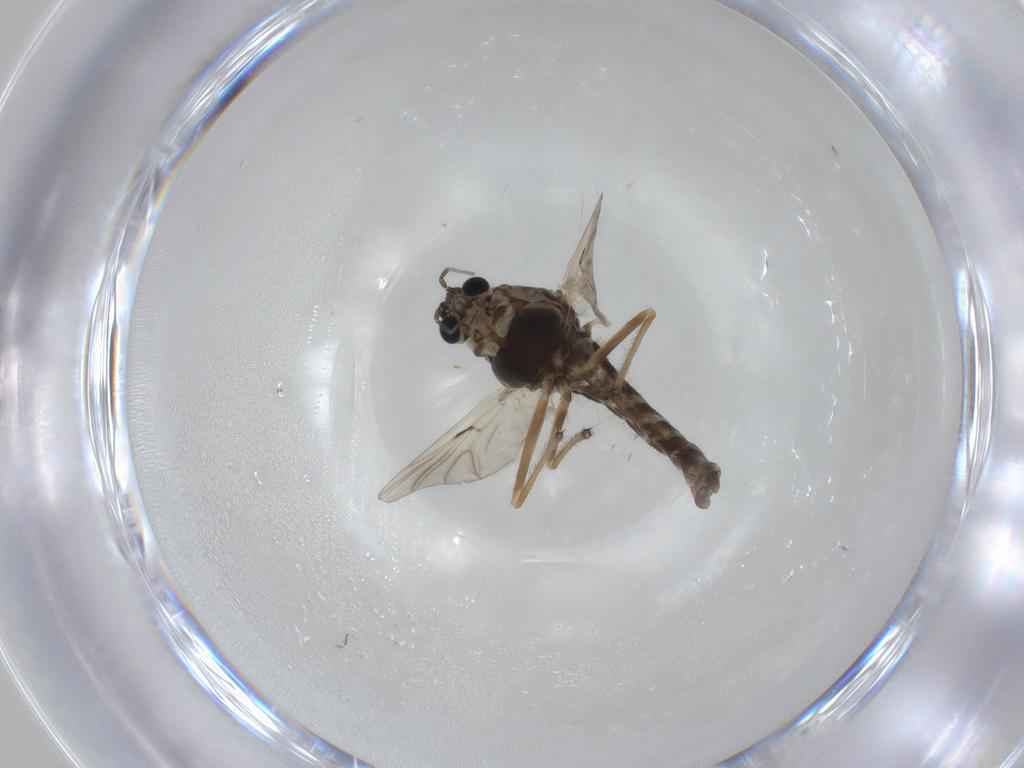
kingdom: Animalia
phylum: Arthropoda
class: Insecta
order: Diptera
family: Chironomidae
